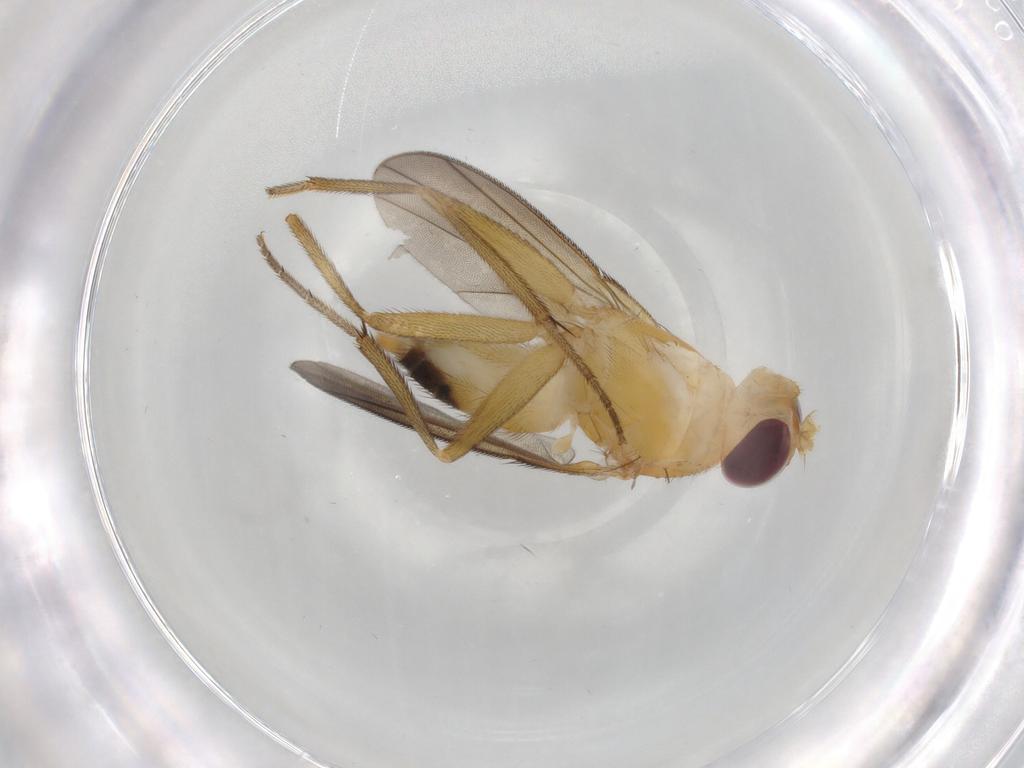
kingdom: Animalia
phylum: Arthropoda
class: Insecta
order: Diptera
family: Clusiidae
